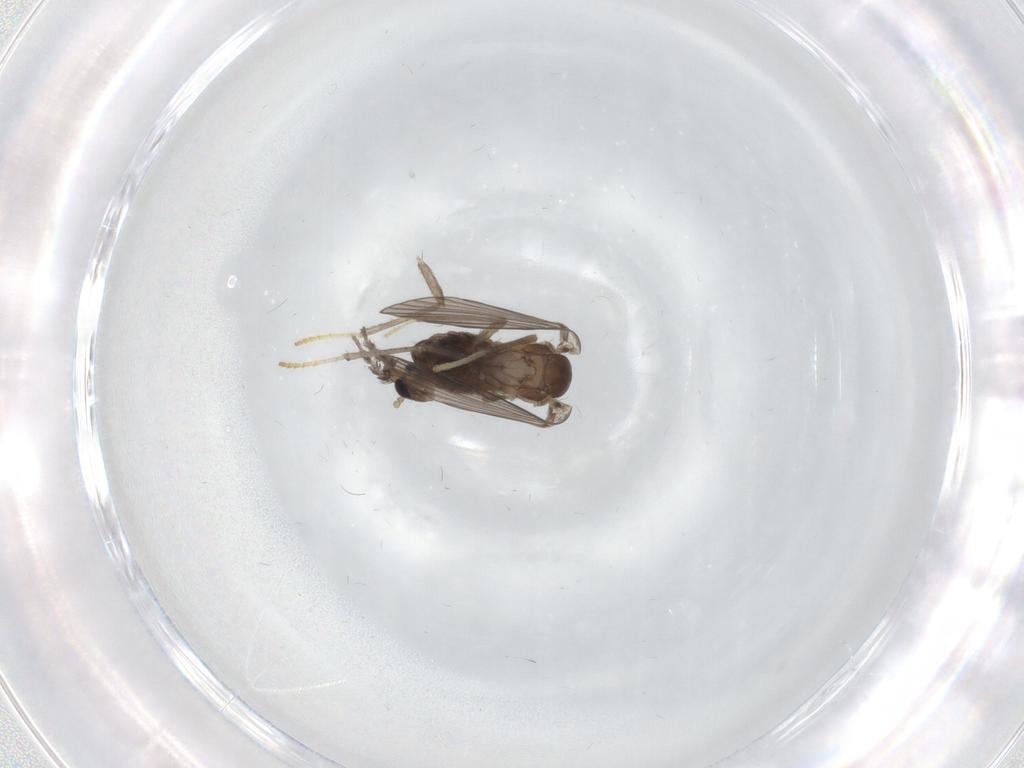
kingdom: Animalia
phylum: Arthropoda
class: Insecta
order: Diptera
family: Psychodidae
